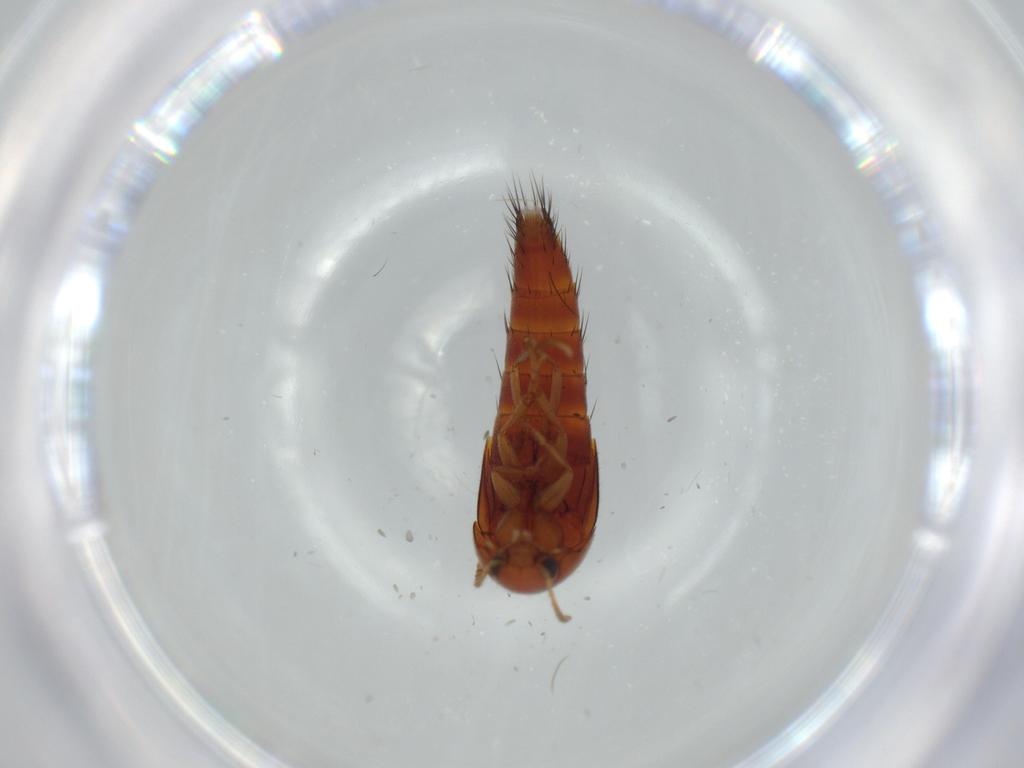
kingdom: Animalia
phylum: Arthropoda
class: Insecta
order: Coleoptera
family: Staphylinidae
